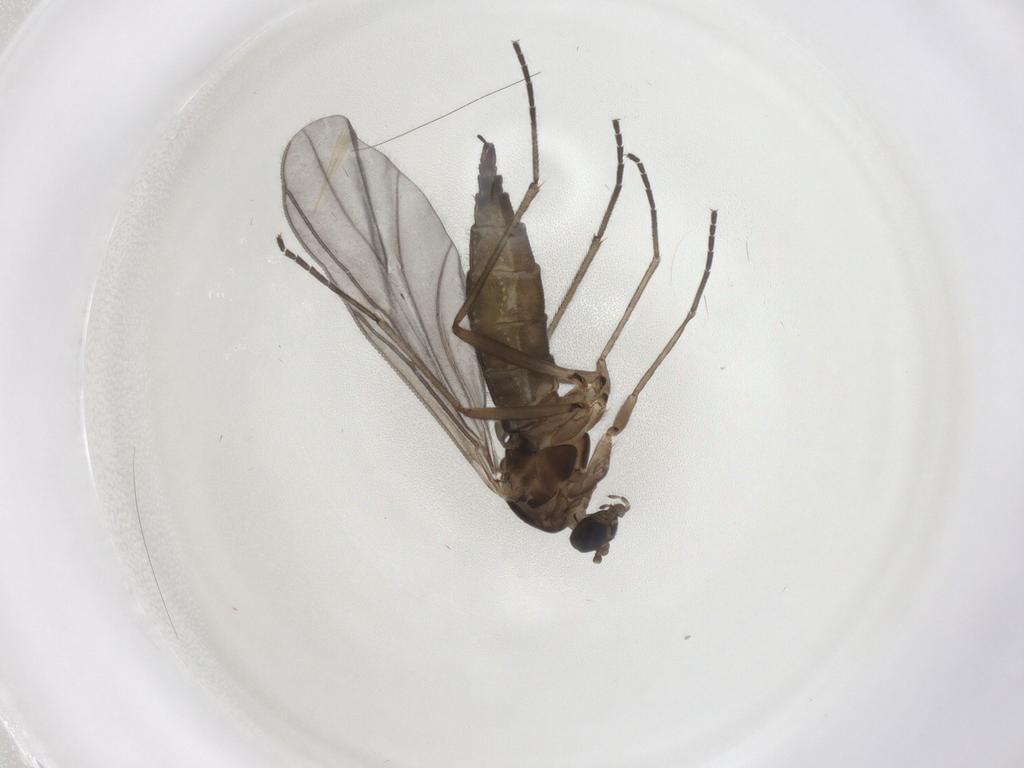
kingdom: Animalia
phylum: Arthropoda
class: Insecta
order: Diptera
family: Sciaridae
